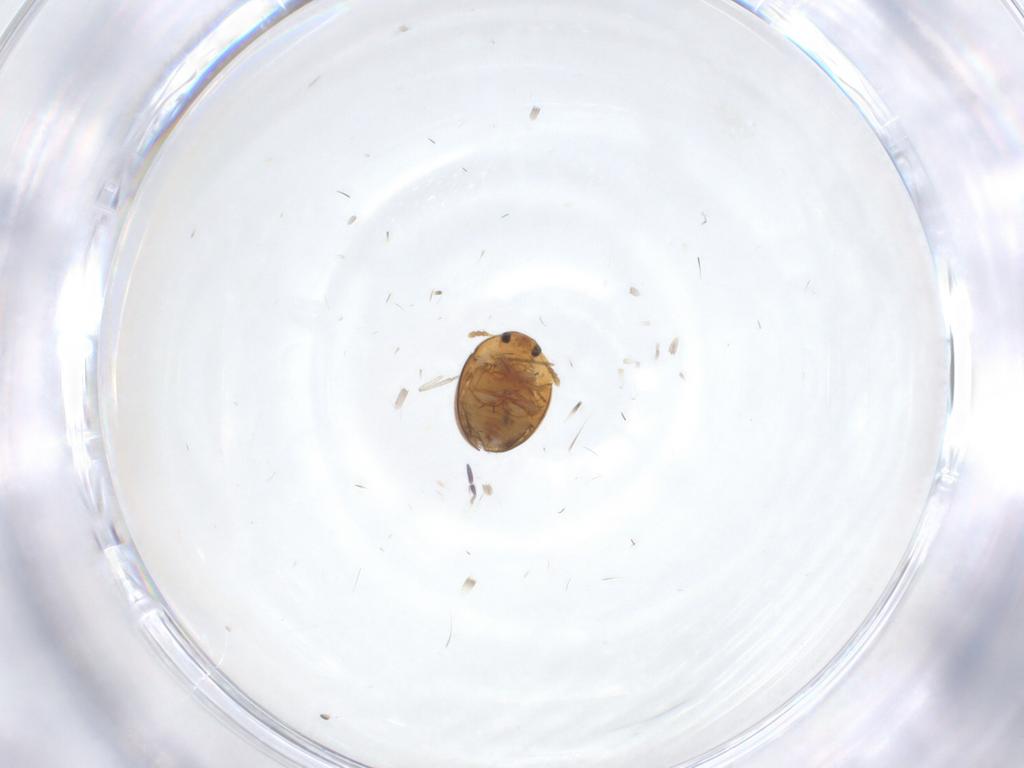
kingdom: Animalia
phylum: Arthropoda
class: Insecta
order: Coleoptera
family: Phalacridae
